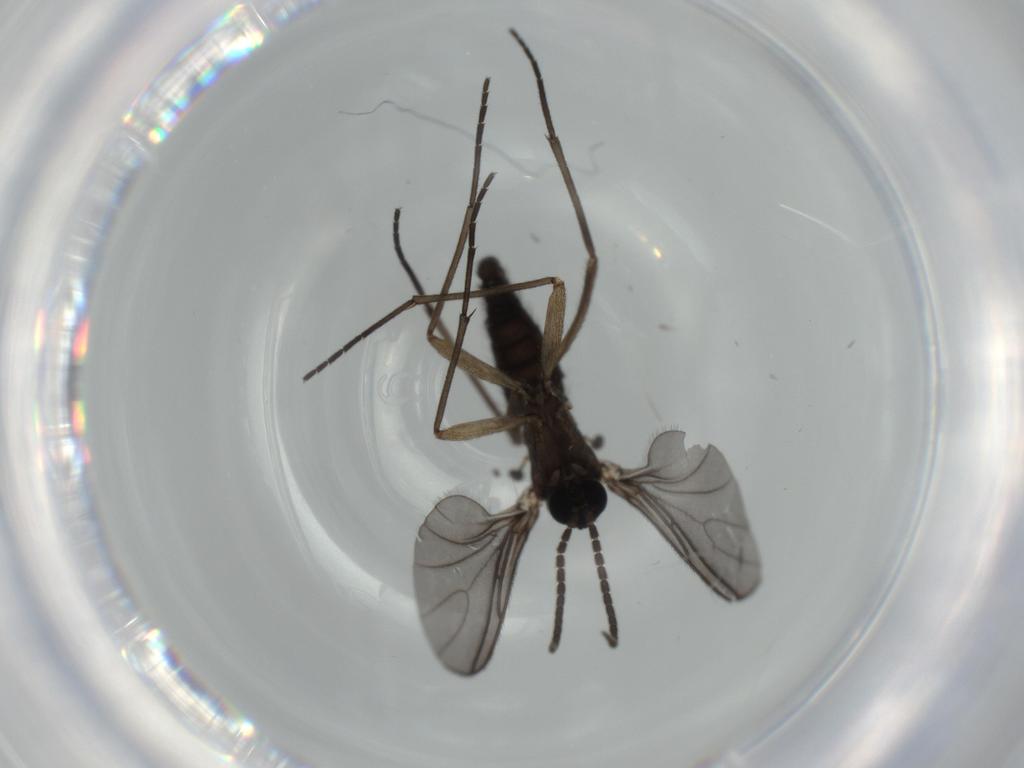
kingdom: Animalia
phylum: Arthropoda
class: Insecta
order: Diptera
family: Sciaridae
